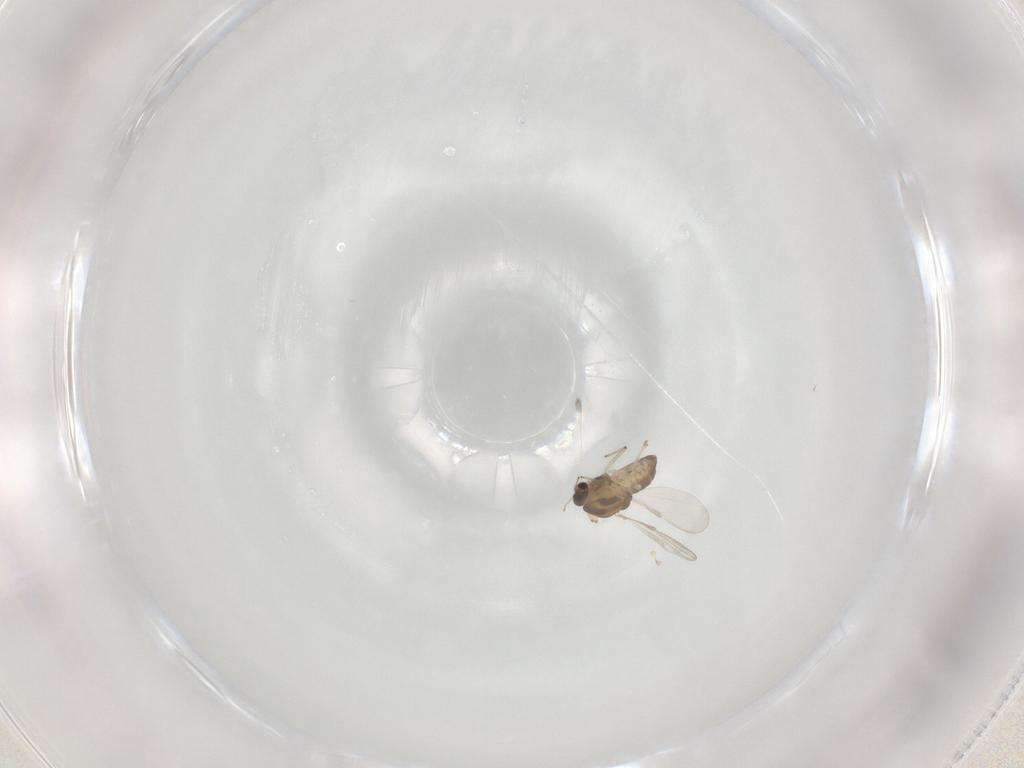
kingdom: Animalia
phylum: Arthropoda
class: Insecta
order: Diptera
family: Chironomidae
